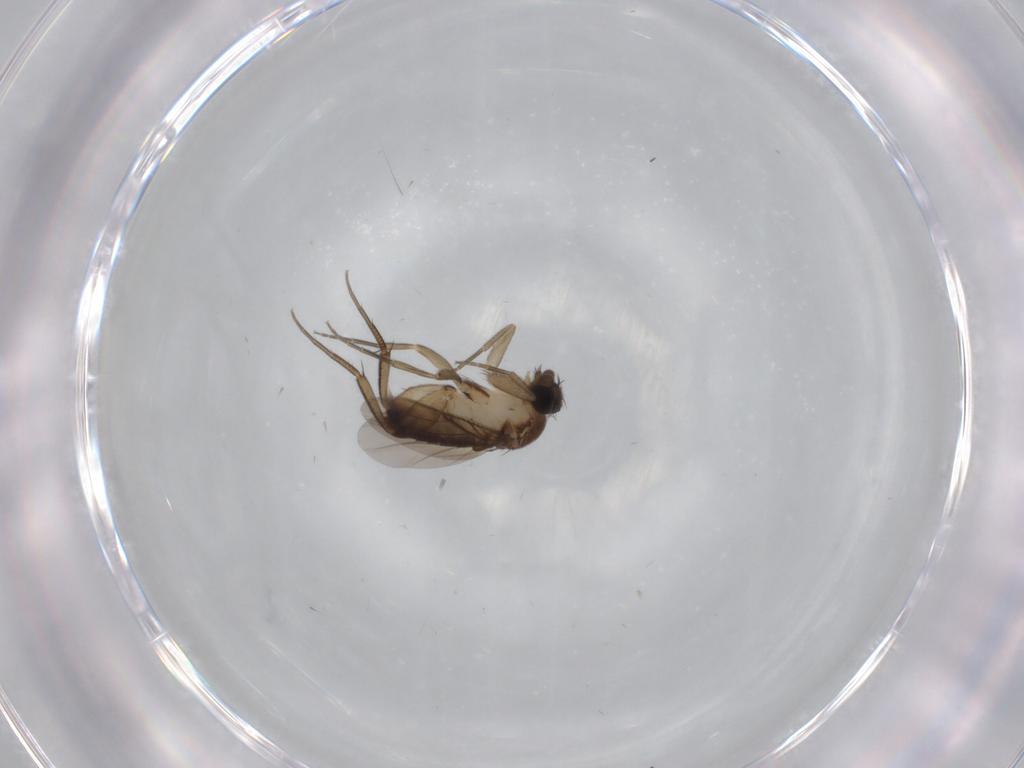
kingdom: Animalia
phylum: Arthropoda
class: Insecta
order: Diptera
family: Phoridae
